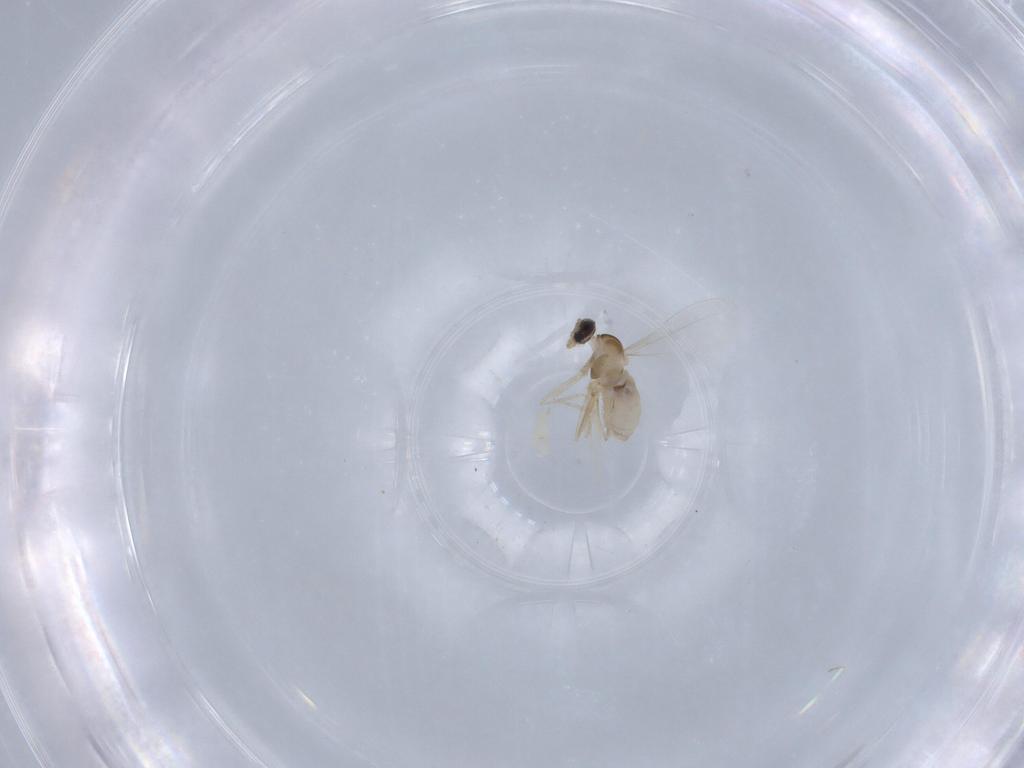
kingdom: Animalia
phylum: Arthropoda
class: Insecta
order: Diptera
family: Cecidomyiidae
